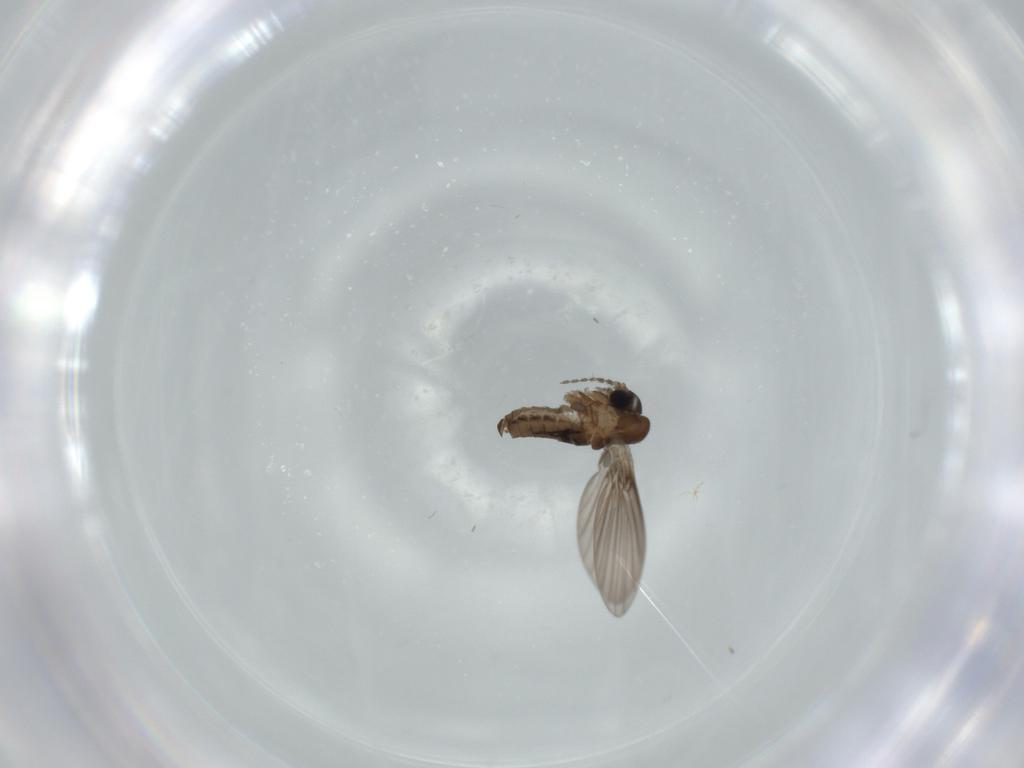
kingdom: Animalia
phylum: Arthropoda
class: Insecta
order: Diptera
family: Psychodidae
